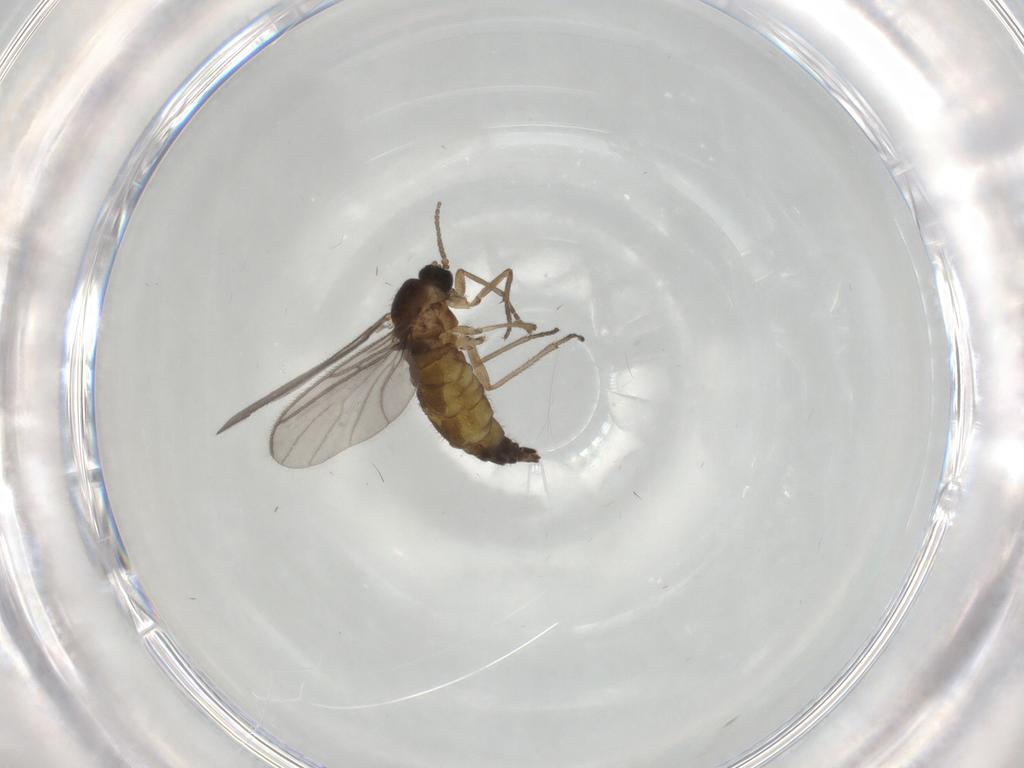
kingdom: Animalia
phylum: Arthropoda
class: Insecta
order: Diptera
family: Sciaridae
